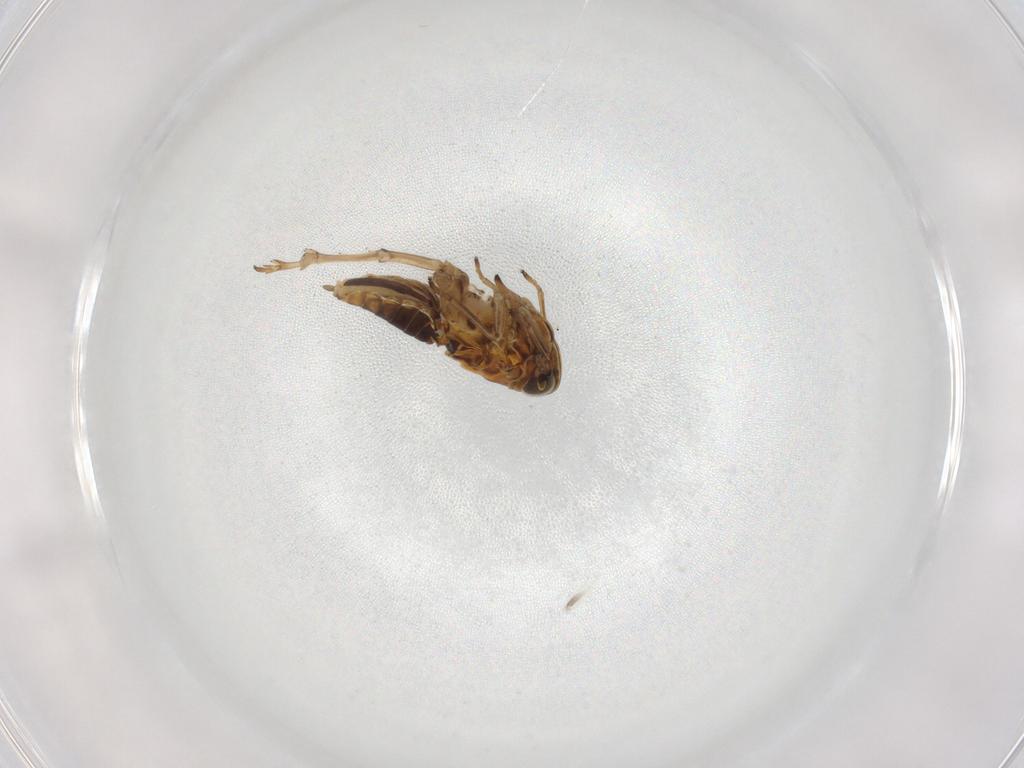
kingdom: Animalia
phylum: Arthropoda
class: Insecta
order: Hemiptera
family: Delphacidae
